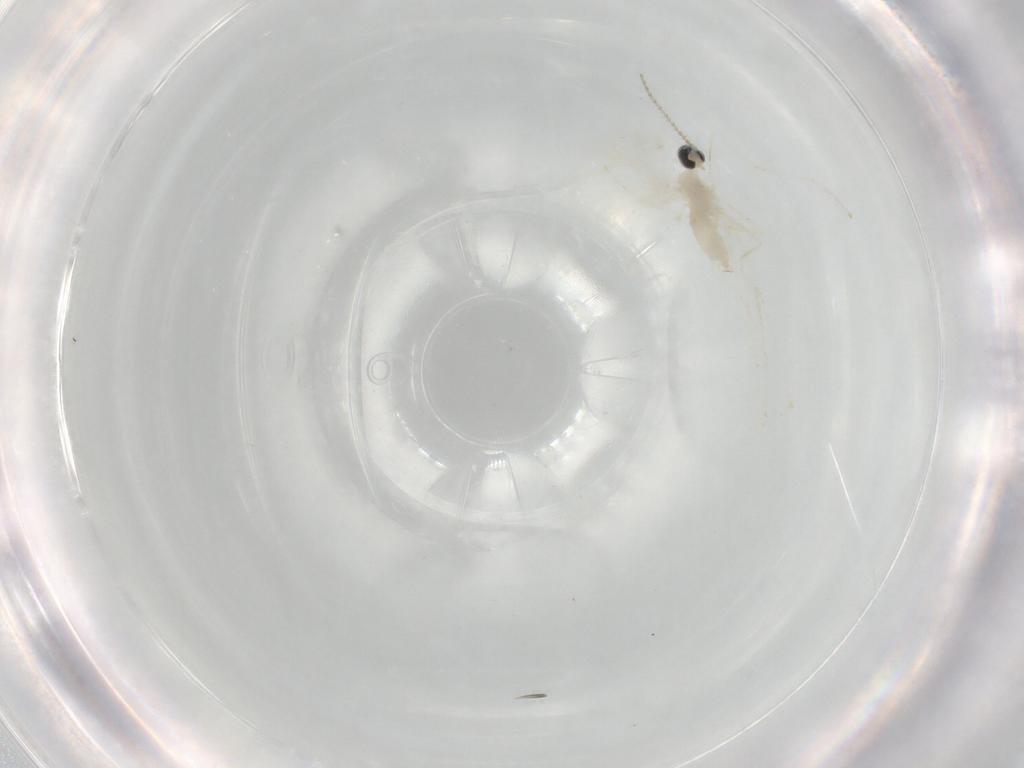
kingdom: Animalia
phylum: Arthropoda
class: Insecta
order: Diptera
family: Cecidomyiidae
